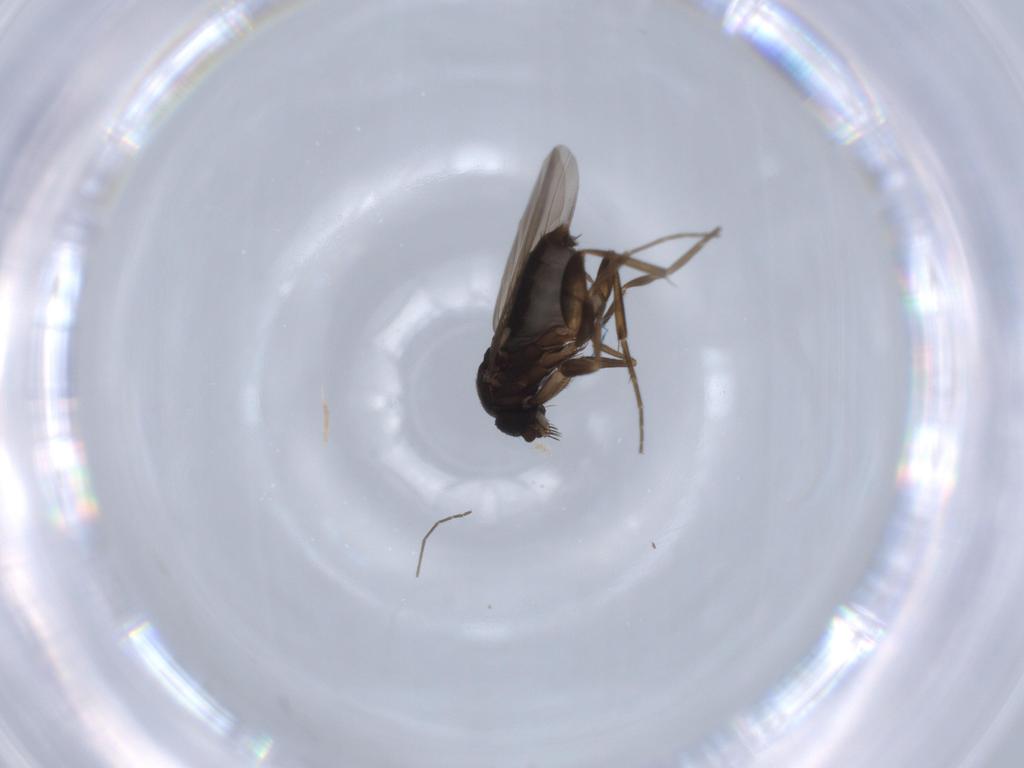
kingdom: Animalia
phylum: Arthropoda
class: Insecta
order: Diptera
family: Phoridae
